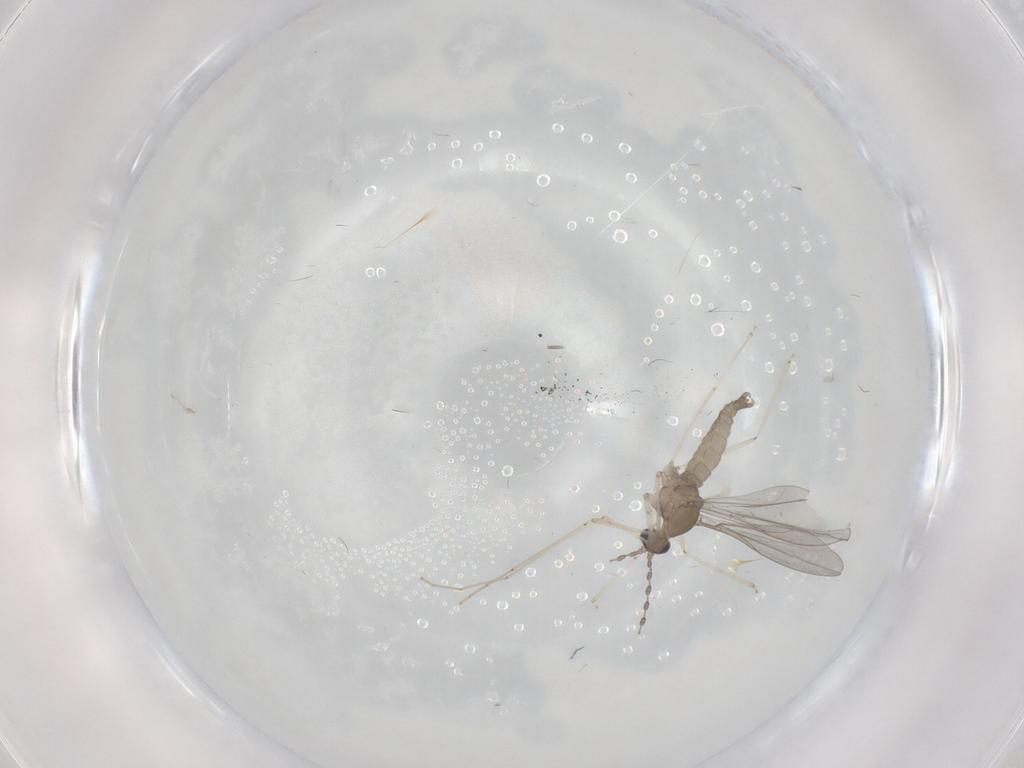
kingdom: Animalia
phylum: Arthropoda
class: Insecta
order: Diptera
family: Cecidomyiidae
